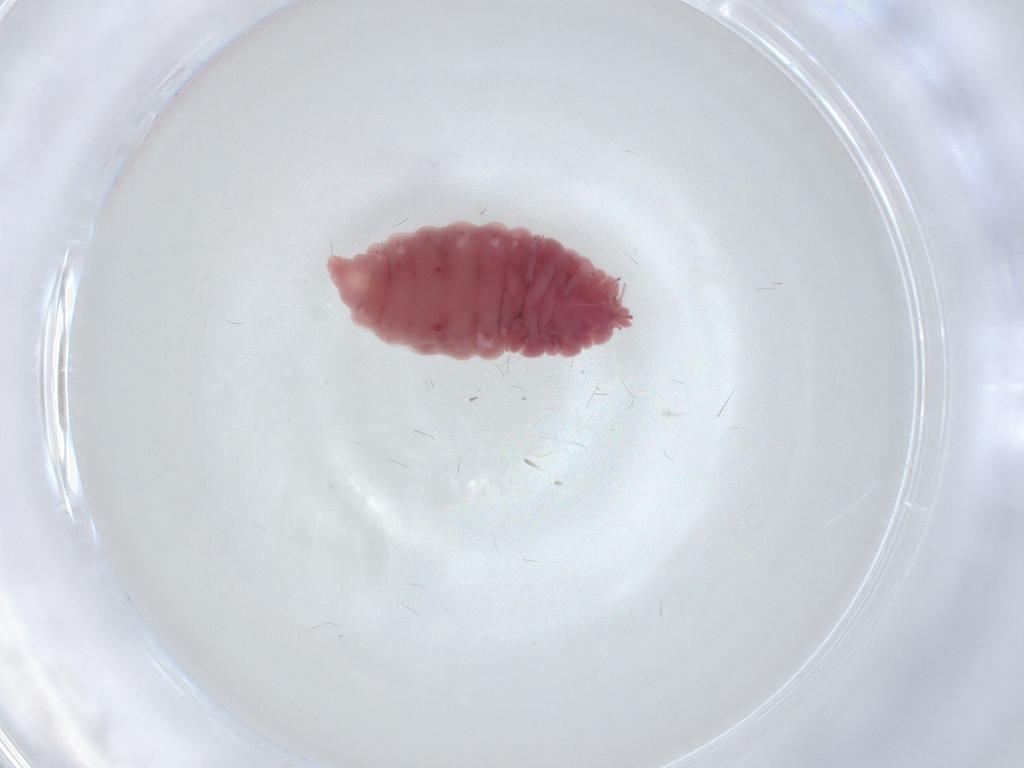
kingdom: Animalia
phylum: Arthropoda
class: Insecta
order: Neuroptera
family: Coniopterygidae
